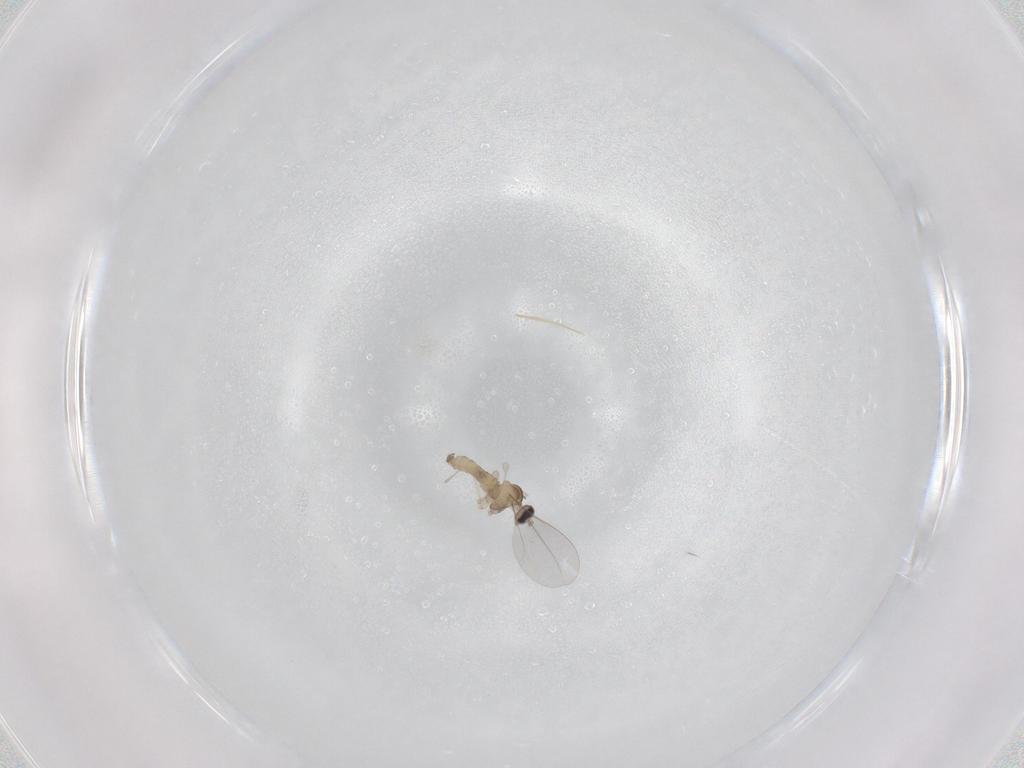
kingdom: Animalia
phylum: Arthropoda
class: Insecta
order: Diptera
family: Cecidomyiidae
